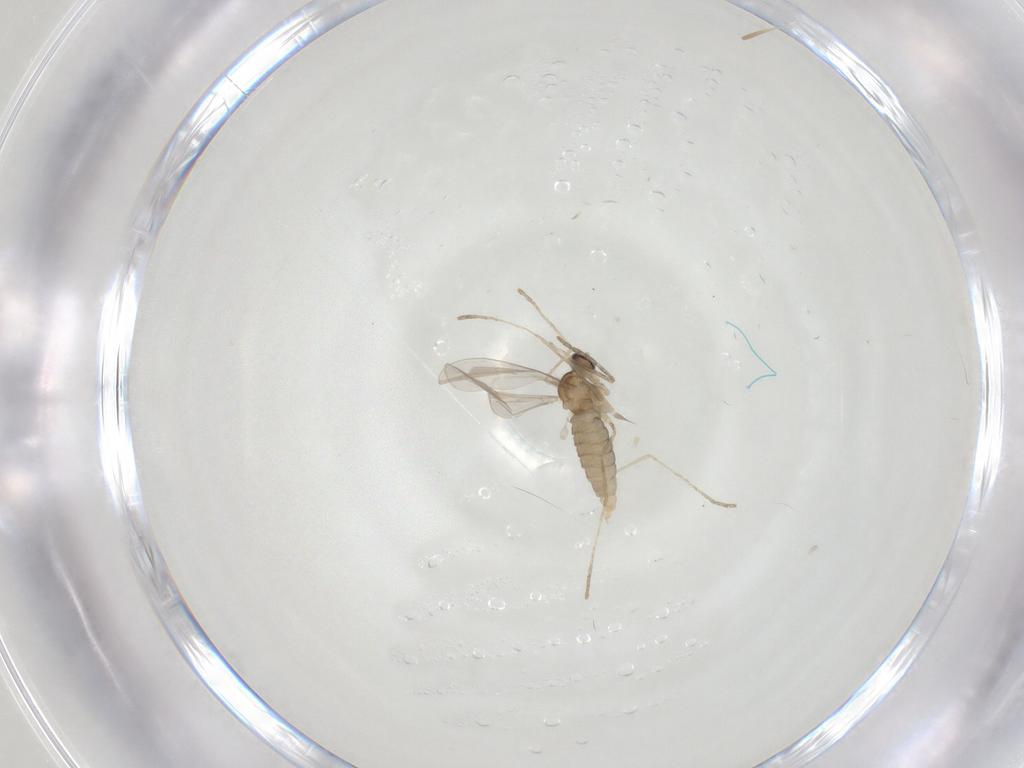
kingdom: Animalia
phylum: Arthropoda
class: Insecta
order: Diptera
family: Cecidomyiidae
